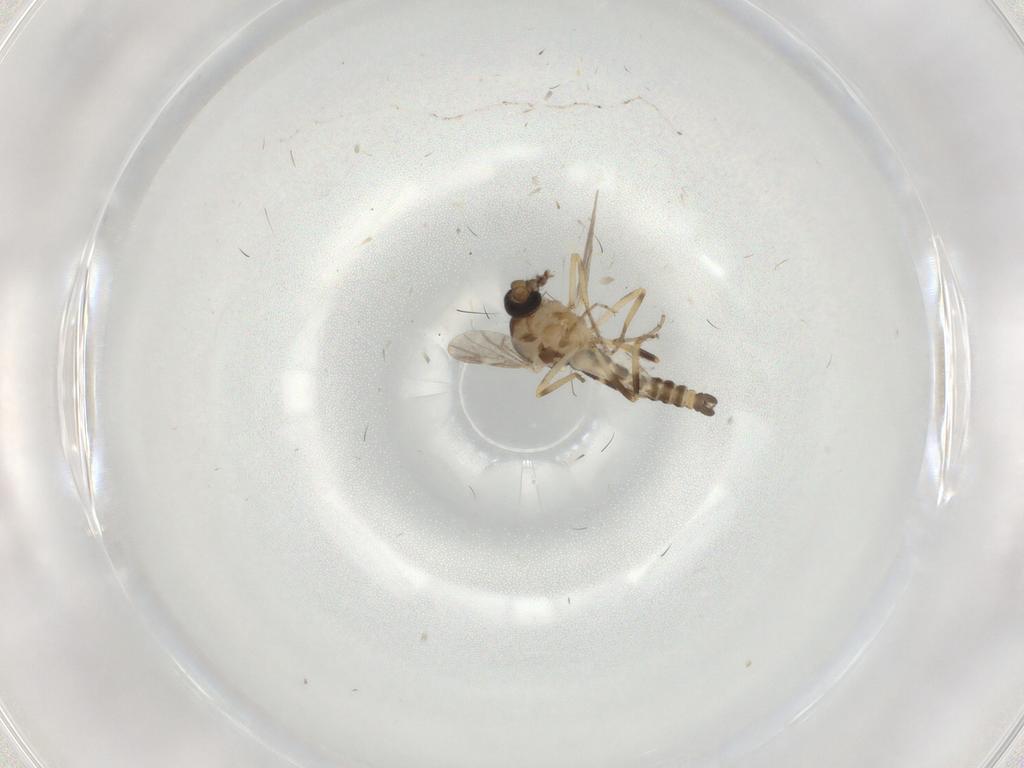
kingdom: Animalia
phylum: Arthropoda
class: Insecta
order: Diptera
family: Ceratopogonidae
